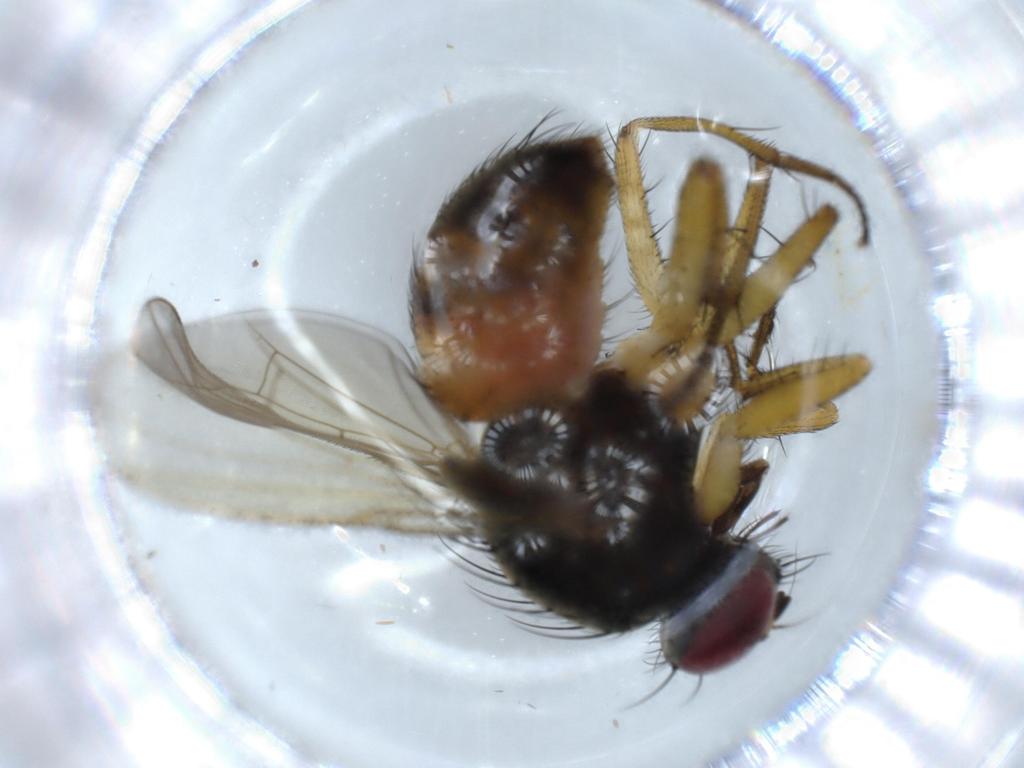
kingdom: Animalia
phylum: Arthropoda
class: Insecta
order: Diptera
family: Muscidae
